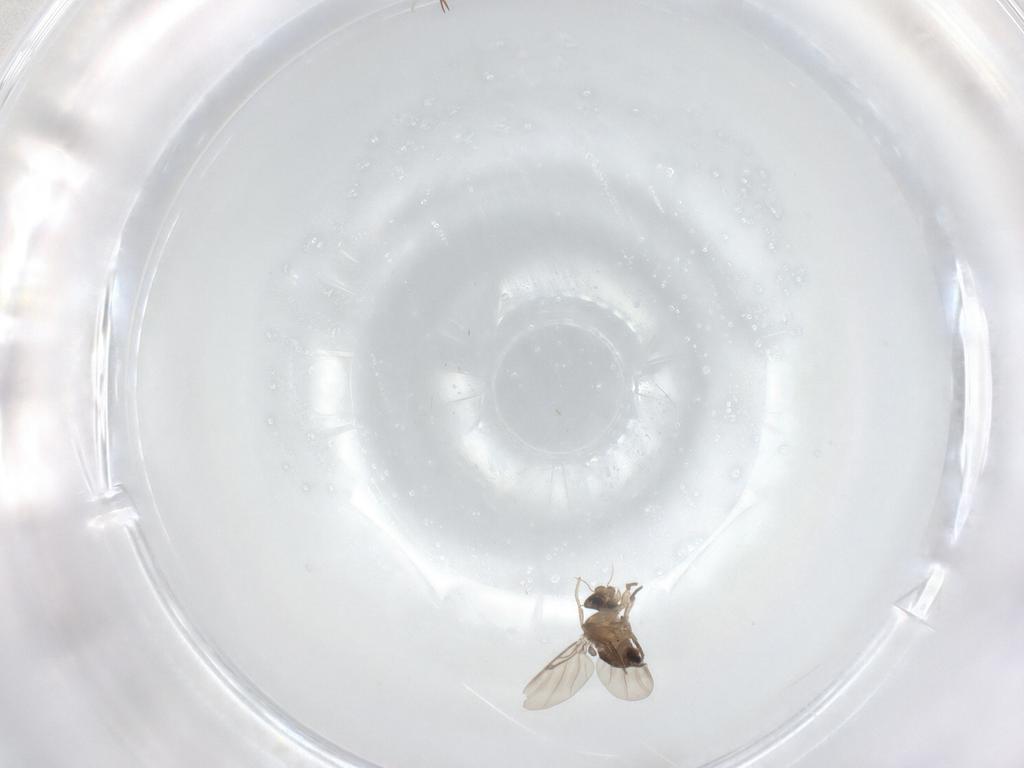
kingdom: Animalia
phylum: Arthropoda
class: Insecta
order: Diptera
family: Phoridae
